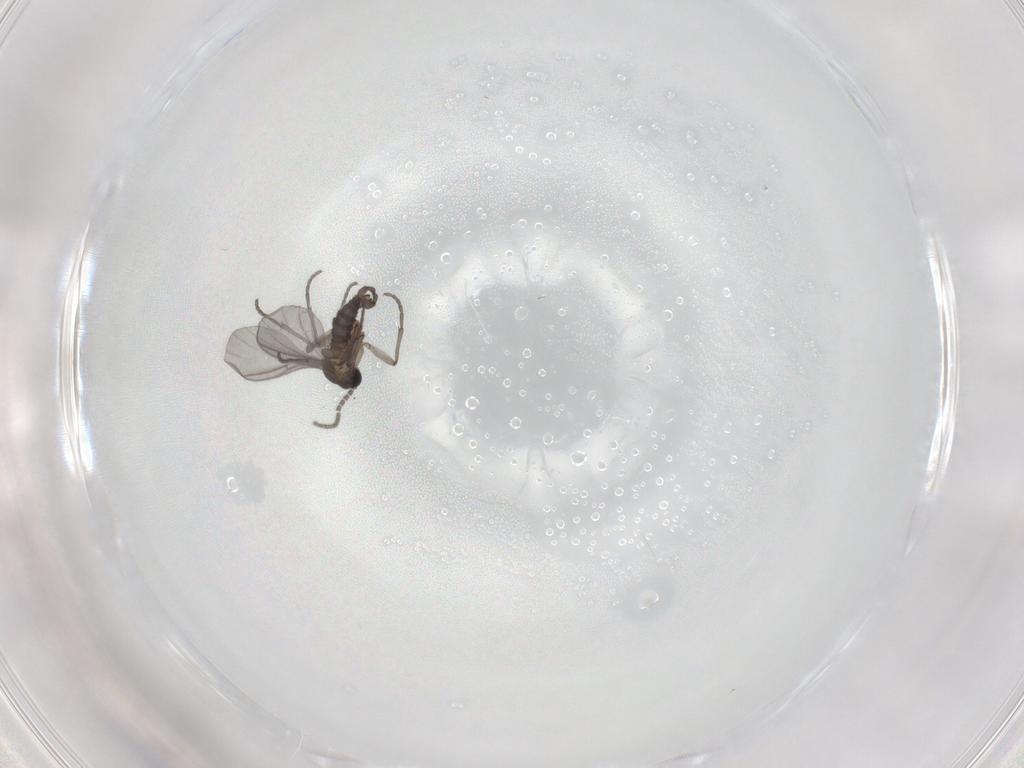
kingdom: Animalia
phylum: Arthropoda
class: Insecta
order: Diptera
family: Sciaridae
